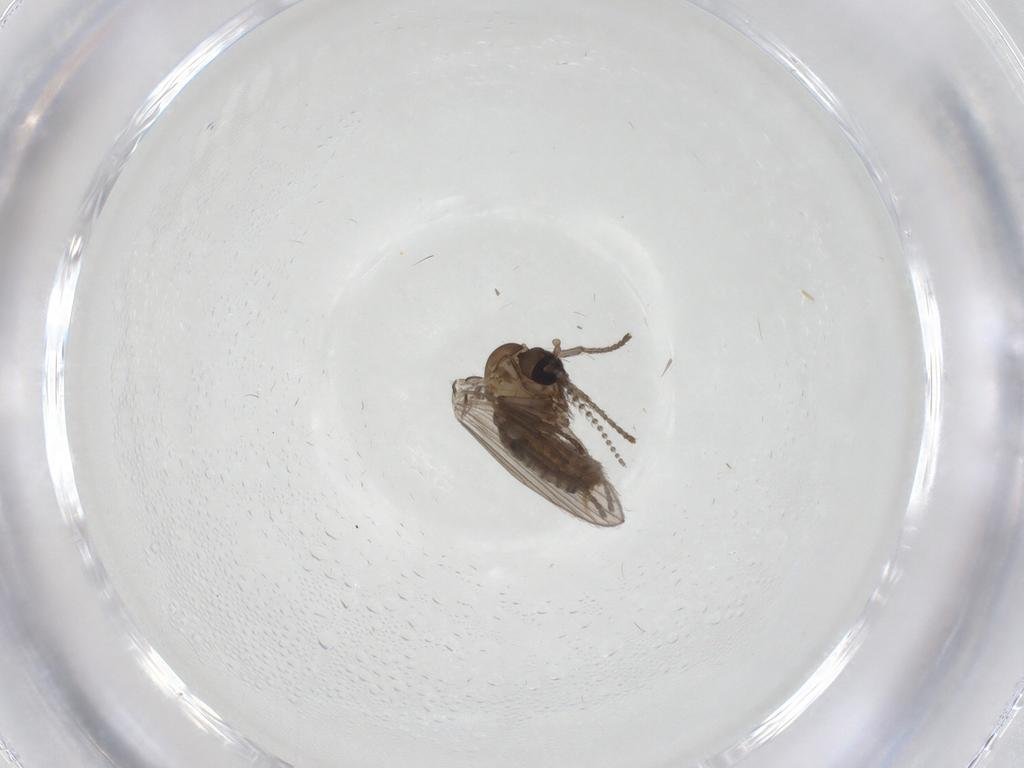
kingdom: Animalia
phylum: Arthropoda
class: Insecta
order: Diptera
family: Psychodidae
